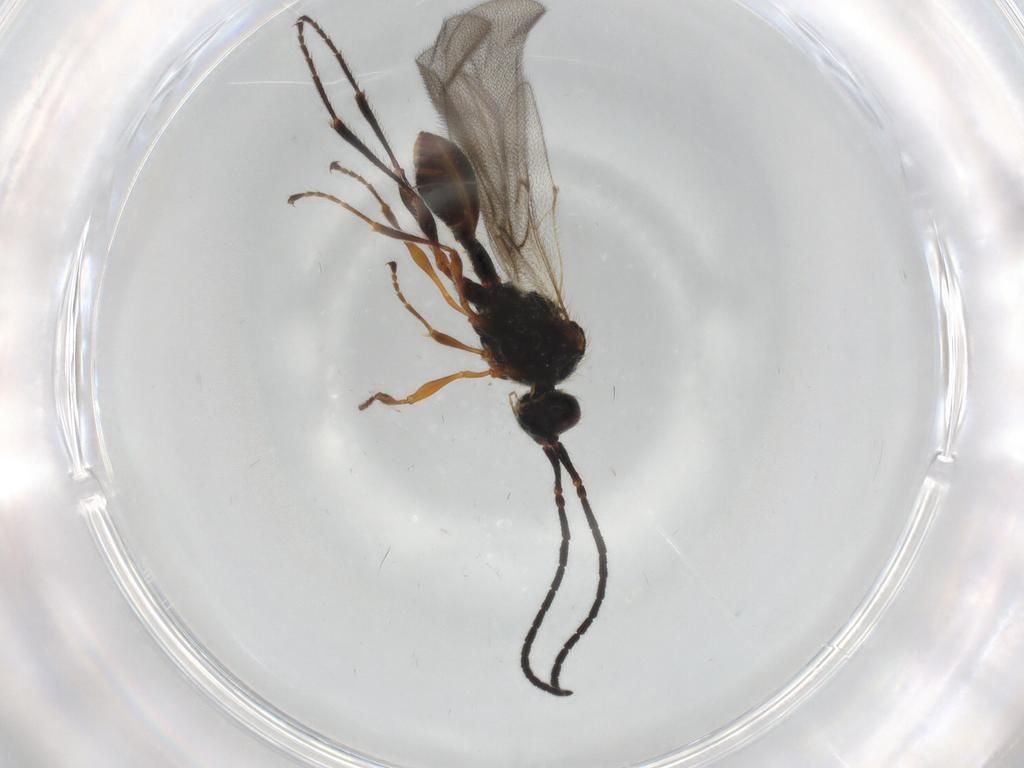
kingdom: Animalia
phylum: Arthropoda
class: Insecta
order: Hymenoptera
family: Diapriidae
